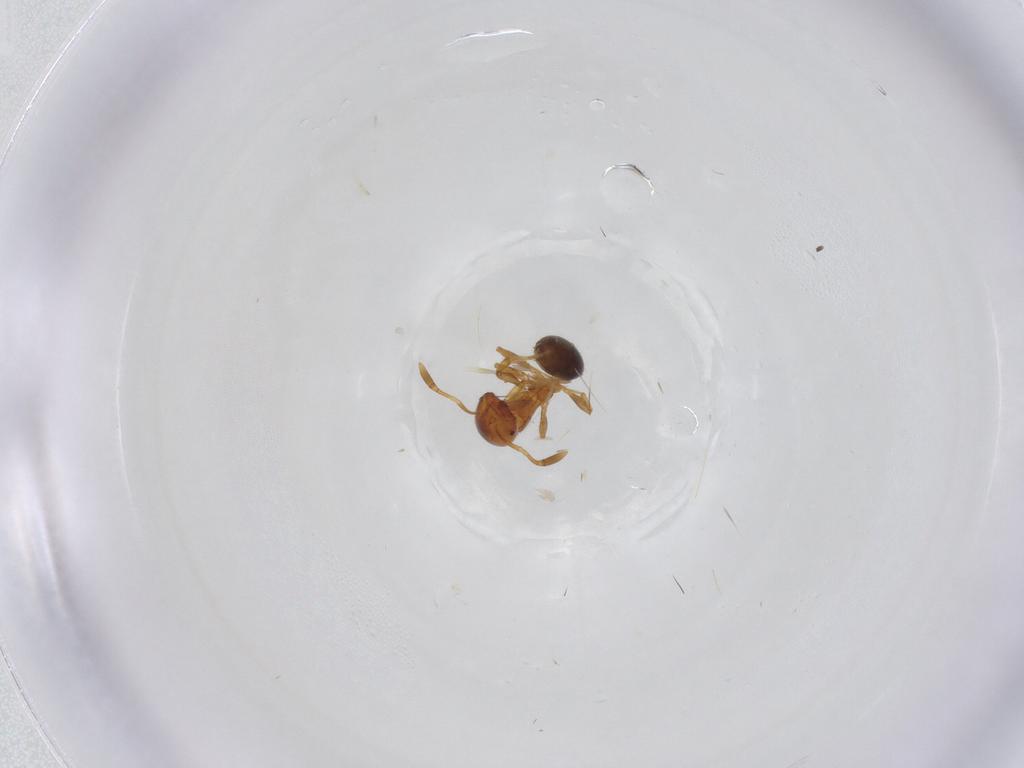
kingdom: Animalia
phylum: Arthropoda
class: Insecta
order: Hymenoptera
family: Formicidae
